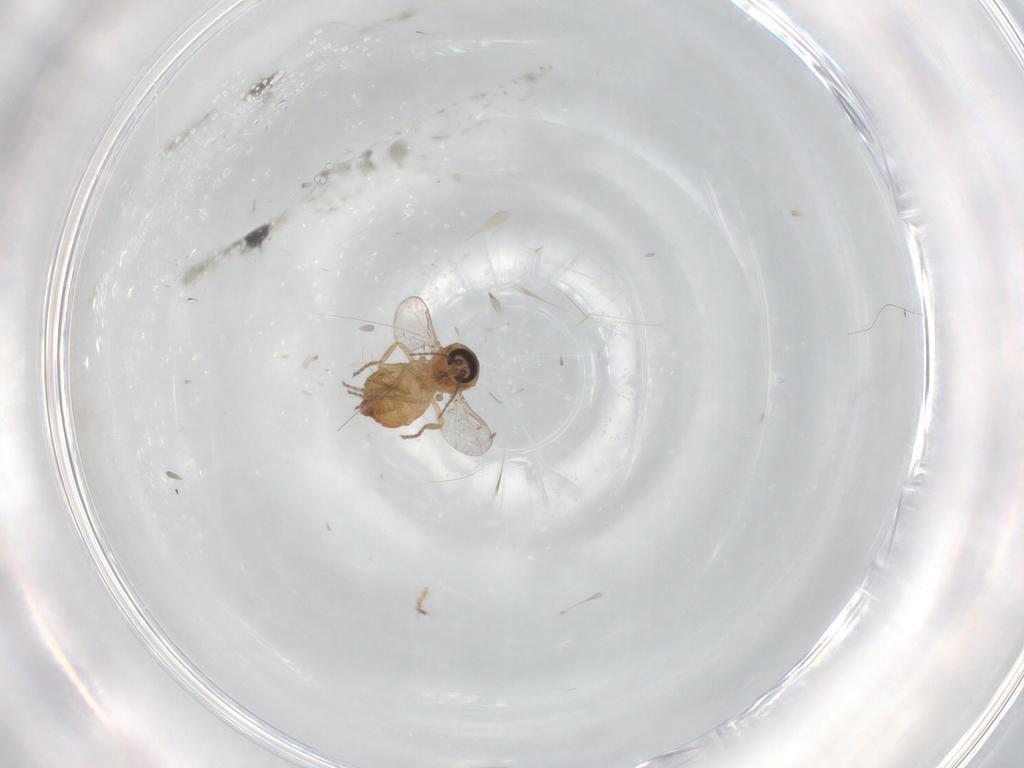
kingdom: Animalia
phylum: Arthropoda
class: Insecta
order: Diptera
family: Ceratopogonidae
